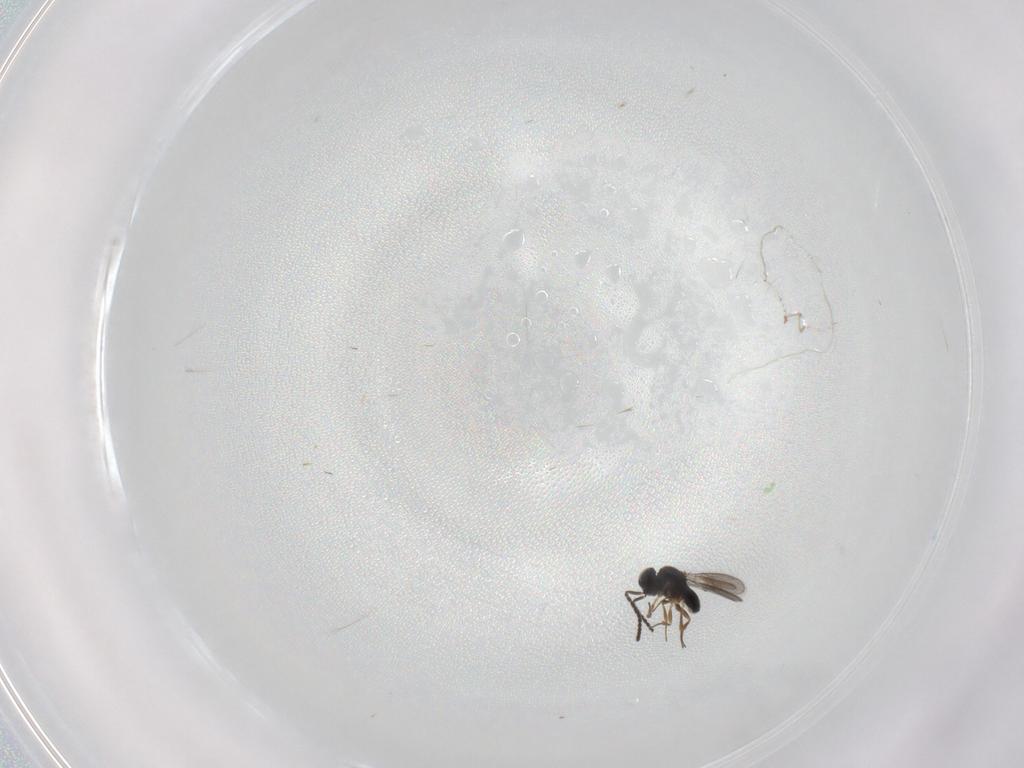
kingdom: Animalia
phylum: Arthropoda
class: Insecta
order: Hymenoptera
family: Scelionidae
